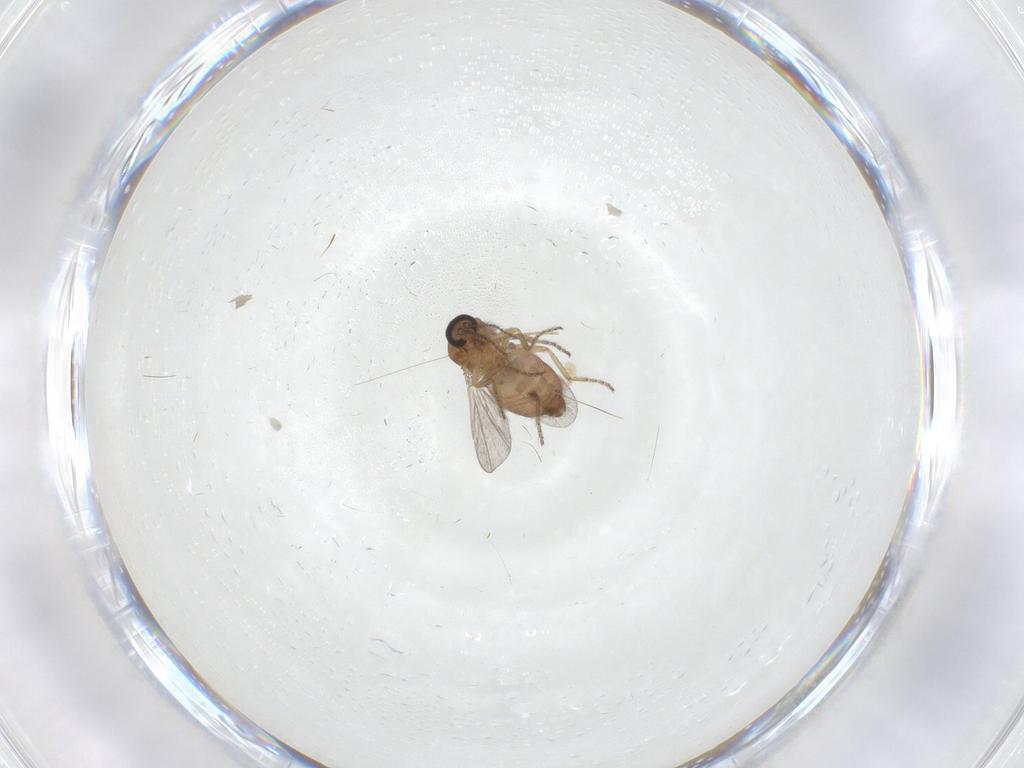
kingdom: Animalia
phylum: Arthropoda
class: Insecta
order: Diptera
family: Ceratopogonidae
